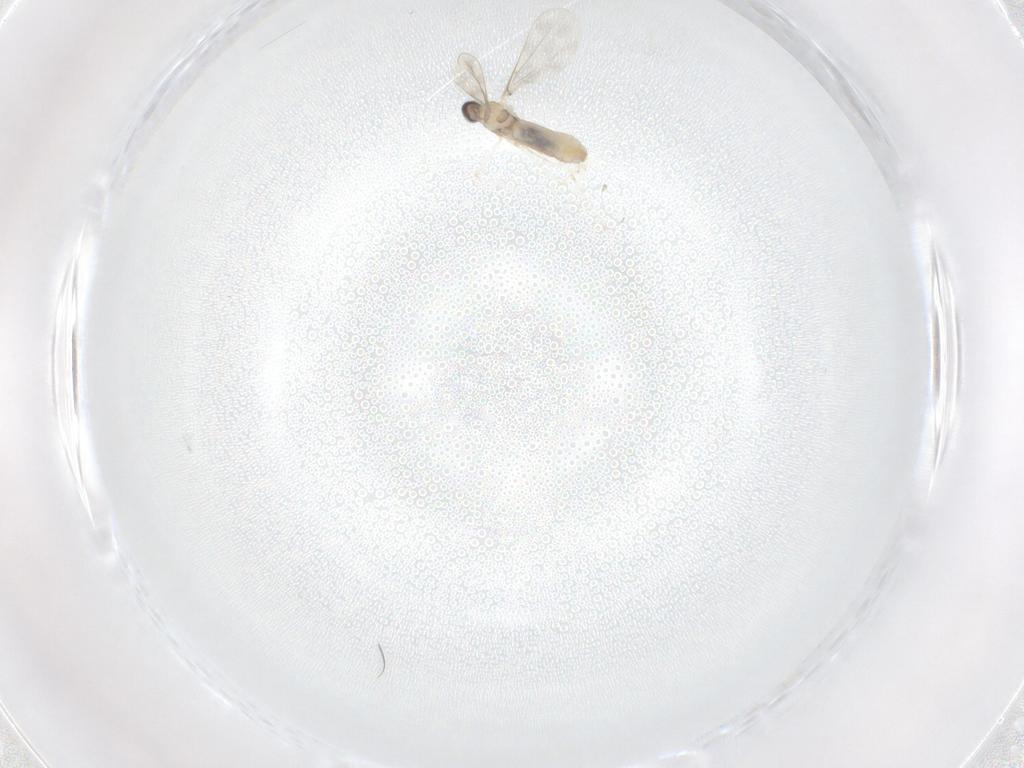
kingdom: Animalia
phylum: Arthropoda
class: Insecta
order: Diptera
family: Cecidomyiidae
